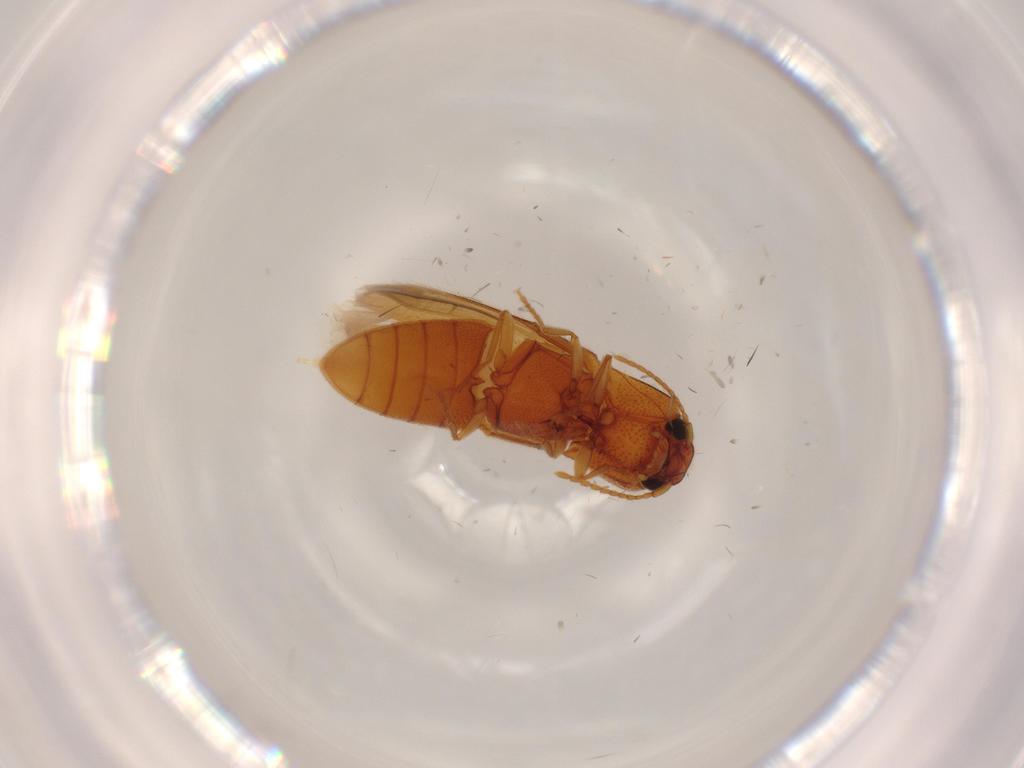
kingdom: Animalia
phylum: Arthropoda
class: Insecta
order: Coleoptera
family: Elateridae
